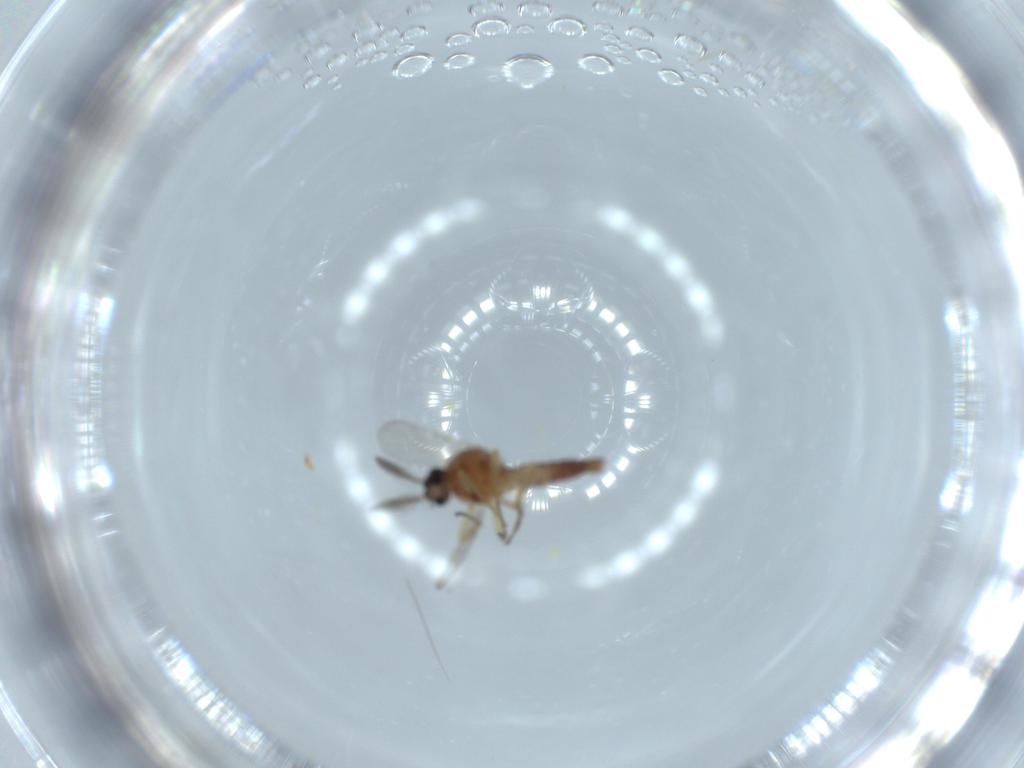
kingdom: Animalia
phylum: Arthropoda
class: Insecta
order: Diptera
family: Ceratopogonidae
